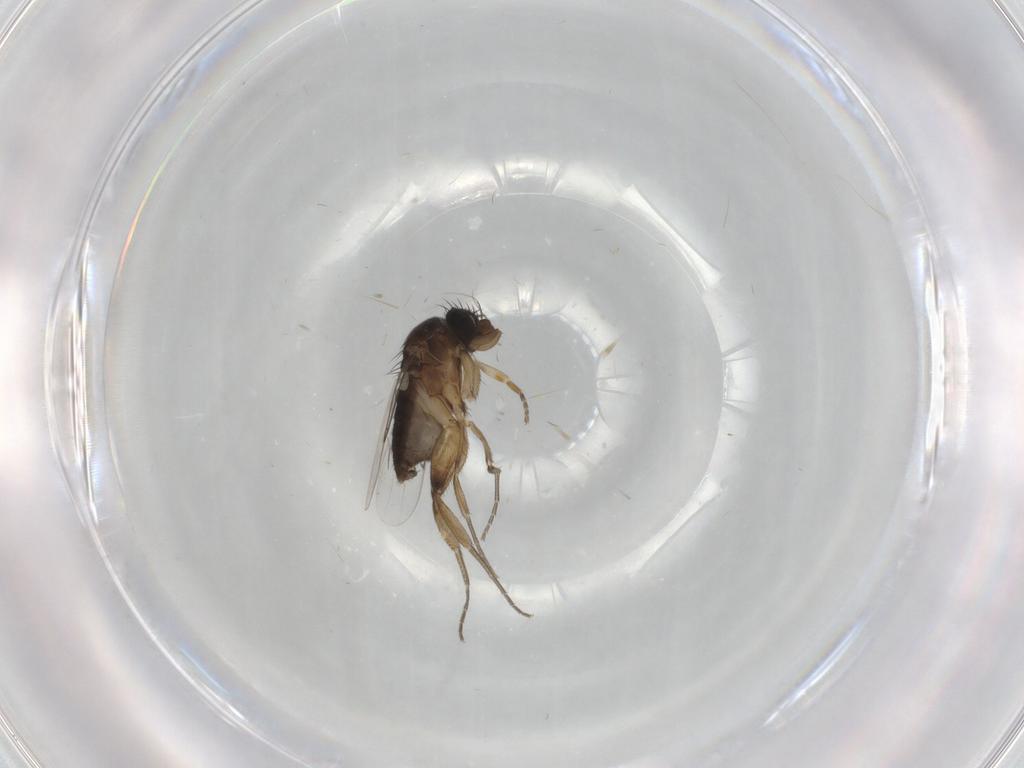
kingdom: Animalia
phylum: Arthropoda
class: Insecta
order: Diptera
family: Phoridae
